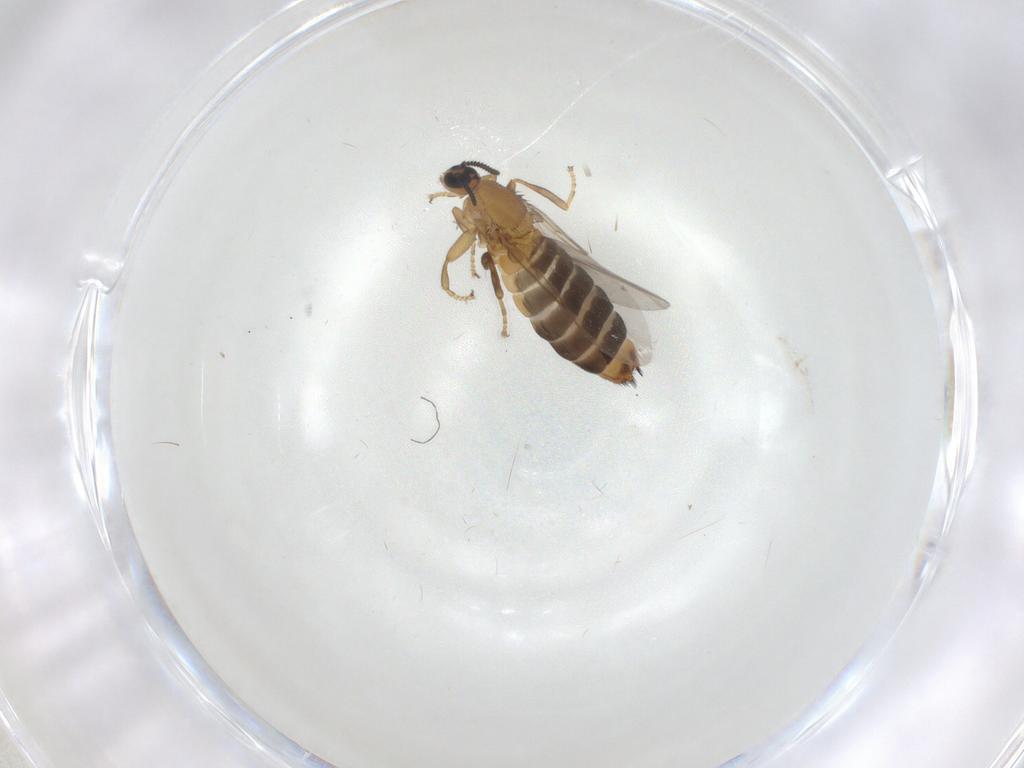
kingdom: Animalia
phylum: Arthropoda
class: Insecta
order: Diptera
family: Scatopsidae
